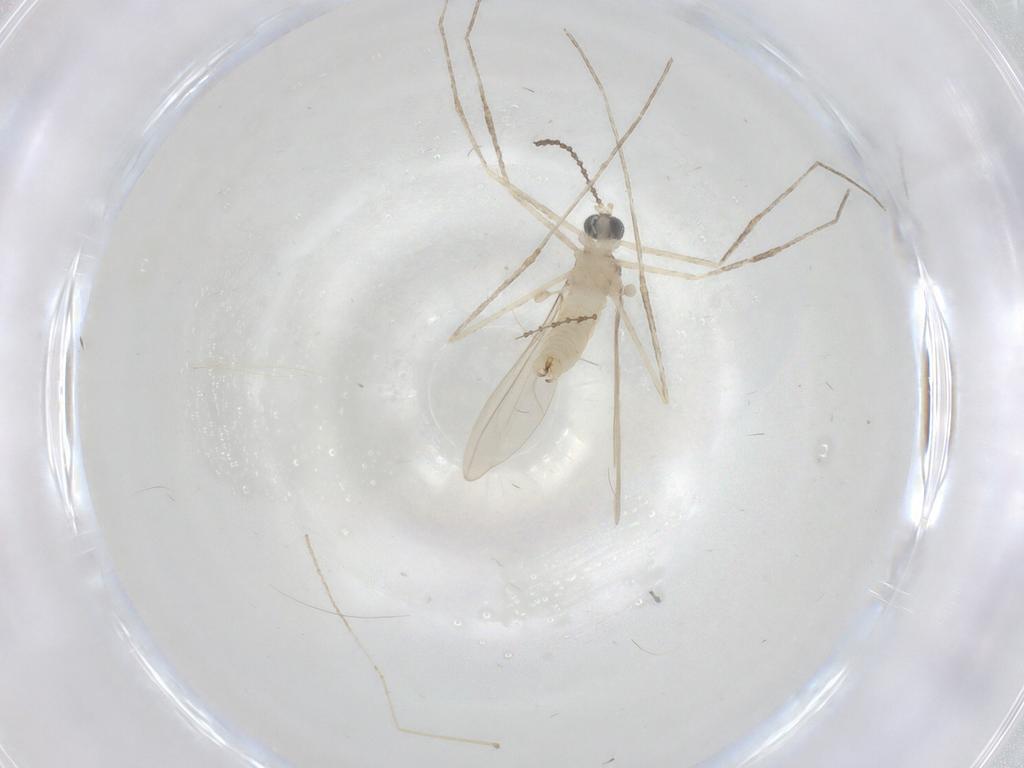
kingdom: Animalia
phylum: Arthropoda
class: Insecta
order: Diptera
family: Cecidomyiidae
